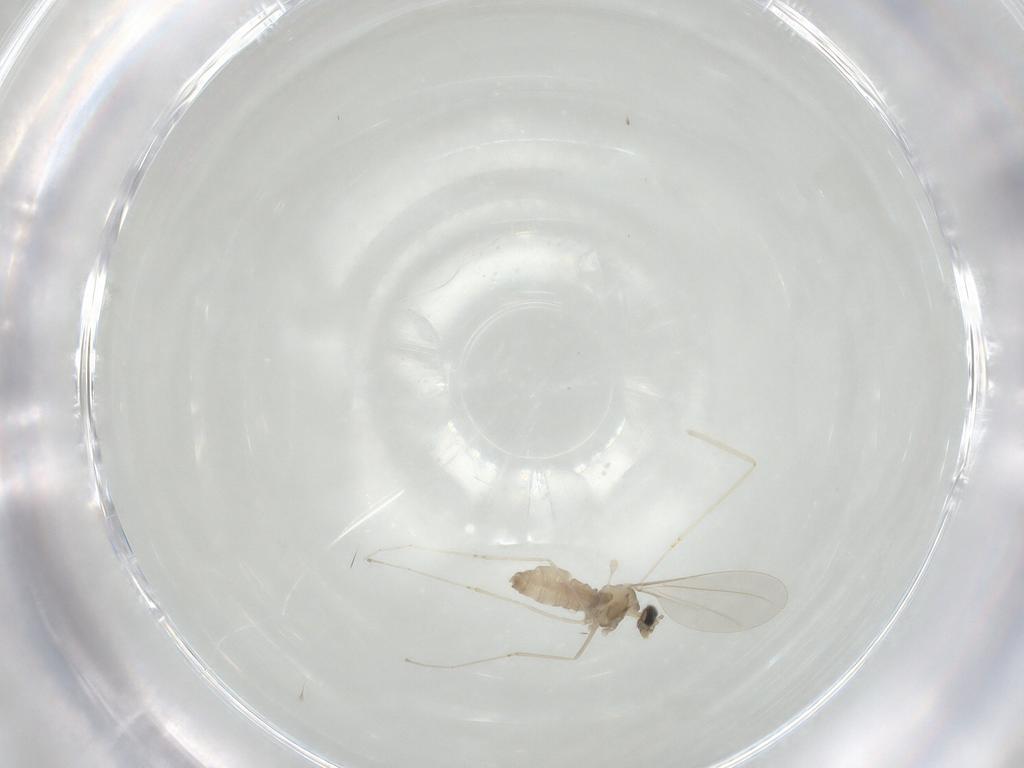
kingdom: Animalia
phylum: Arthropoda
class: Insecta
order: Diptera
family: Cecidomyiidae
